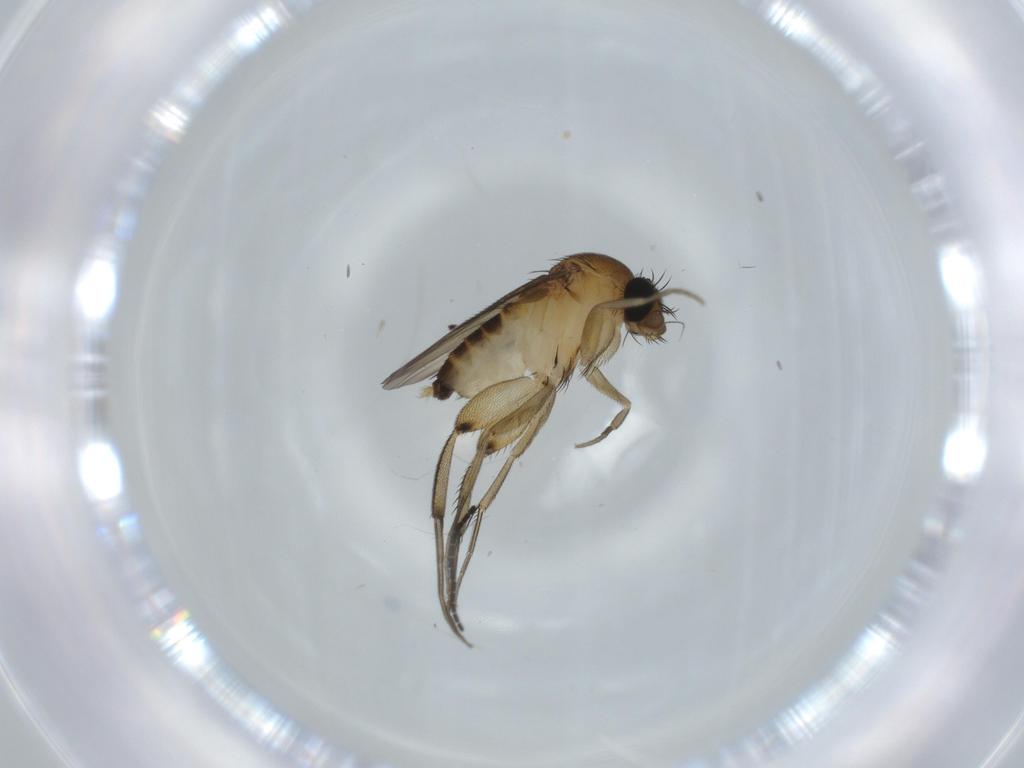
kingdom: Animalia
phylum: Arthropoda
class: Insecta
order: Diptera
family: Phoridae
